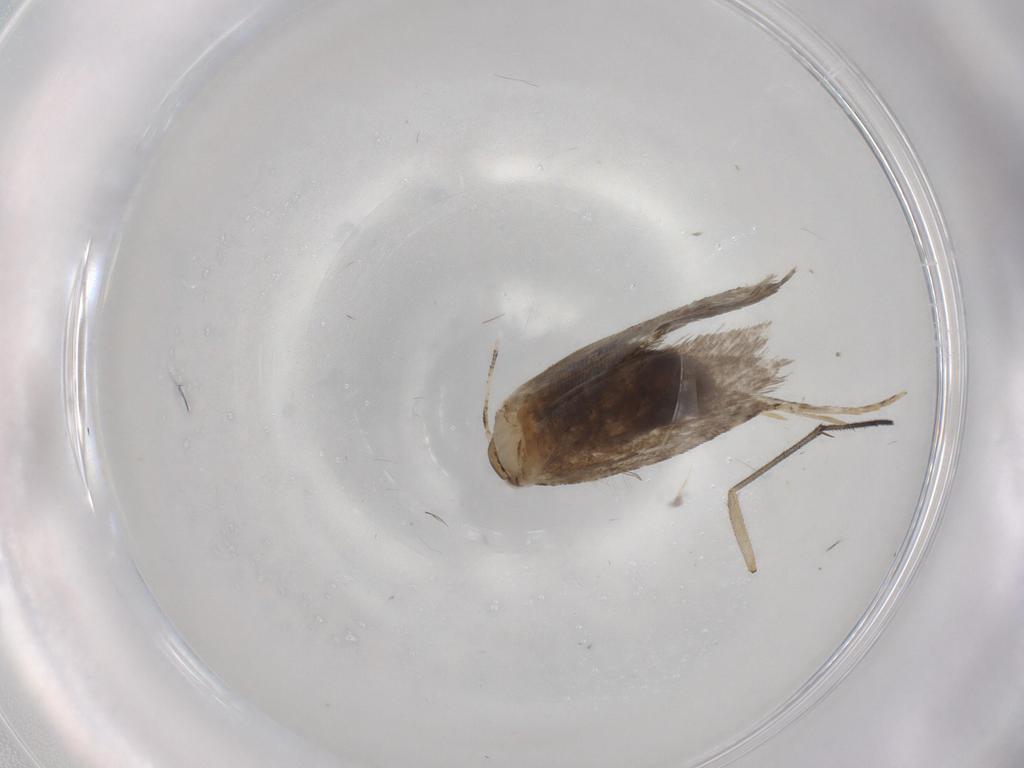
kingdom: Animalia
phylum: Arthropoda
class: Insecta
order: Lepidoptera
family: Tineidae
